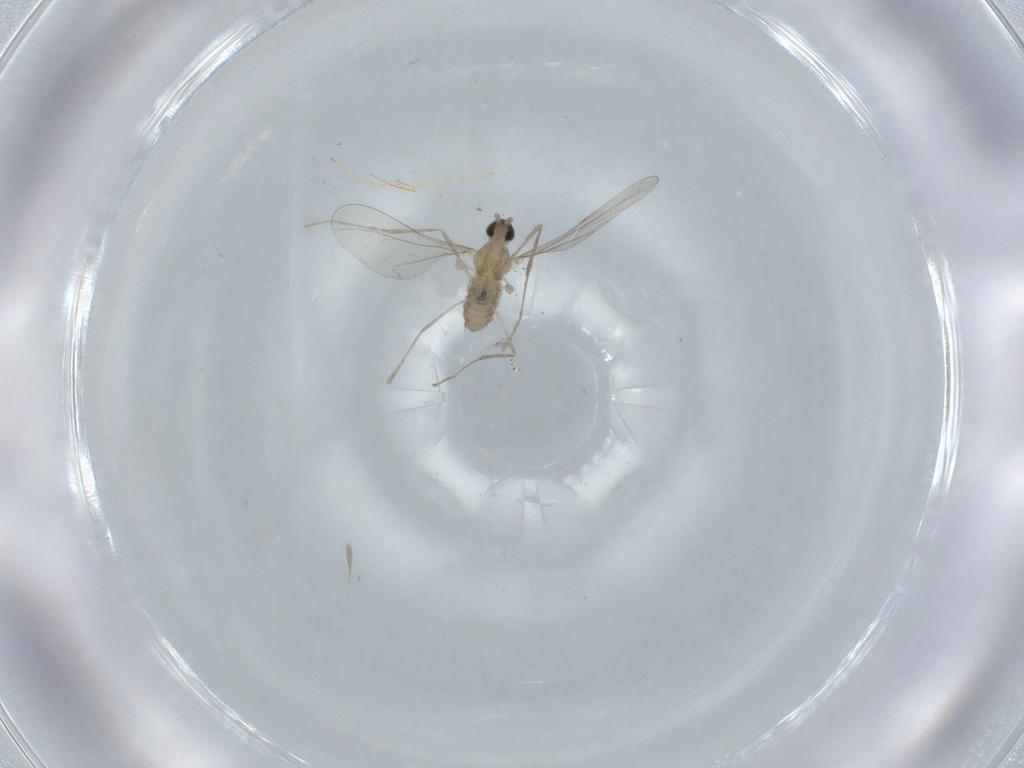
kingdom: Animalia
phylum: Arthropoda
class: Insecta
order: Diptera
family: Cecidomyiidae
